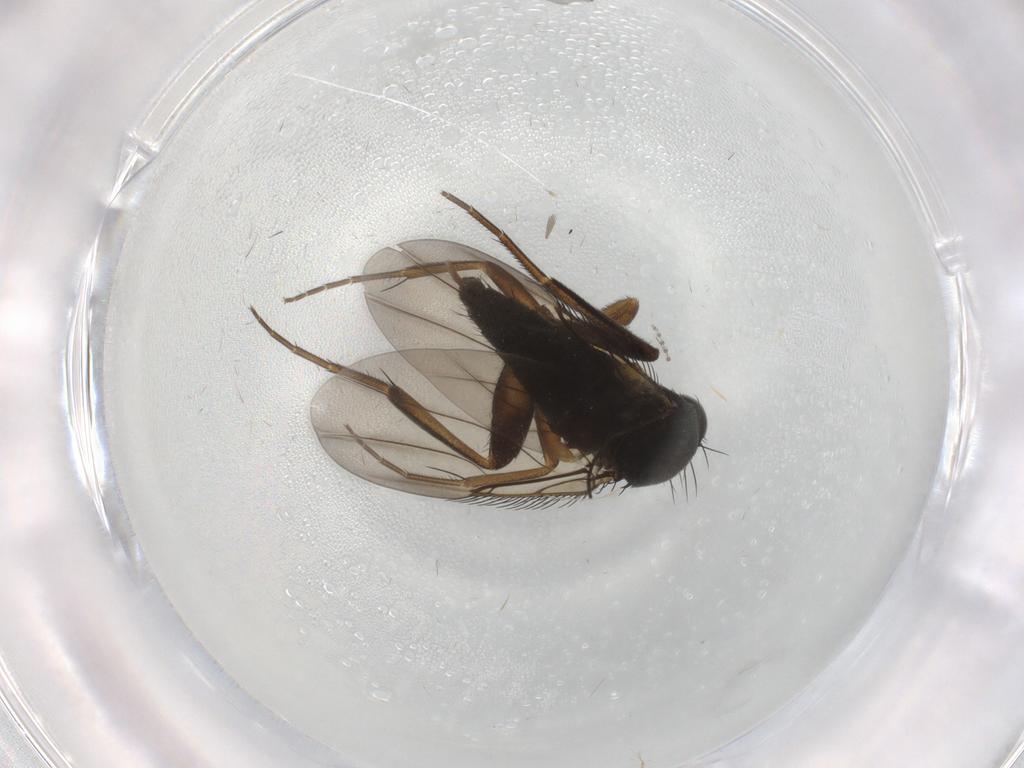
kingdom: Animalia
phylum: Arthropoda
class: Insecta
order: Diptera
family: Phoridae
